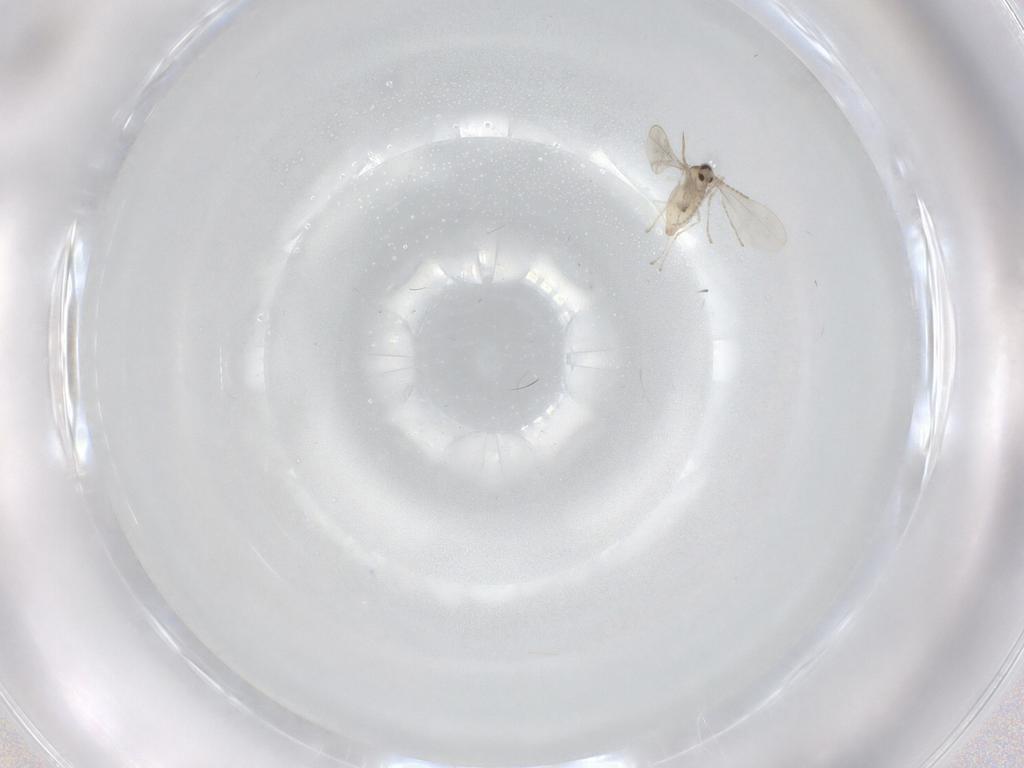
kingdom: Animalia
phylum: Arthropoda
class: Insecta
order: Diptera
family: Cecidomyiidae
